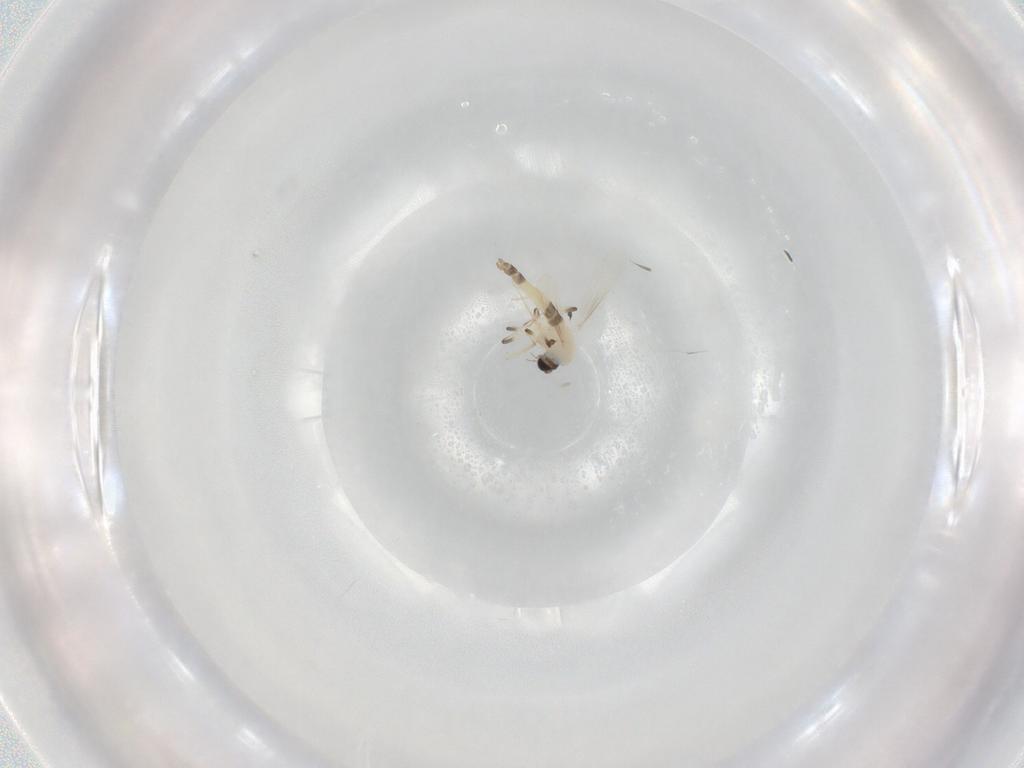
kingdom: Animalia
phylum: Arthropoda
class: Insecta
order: Diptera
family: Chironomidae
